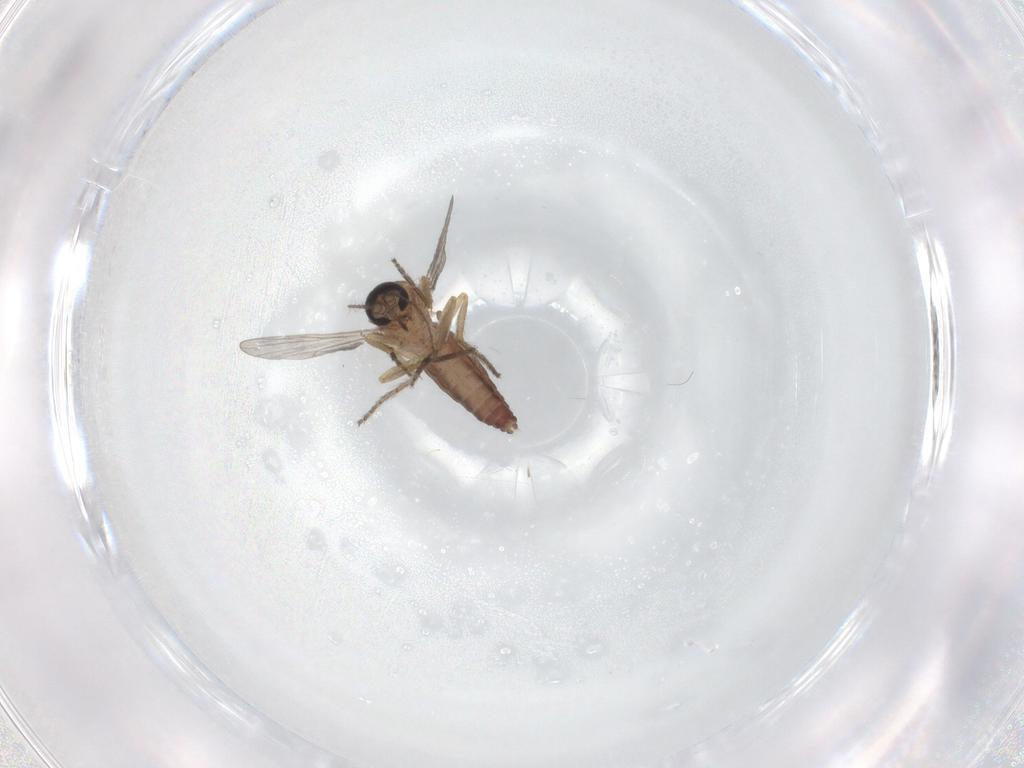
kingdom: Animalia
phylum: Arthropoda
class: Insecta
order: Diptera
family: Ceratopogonidae
